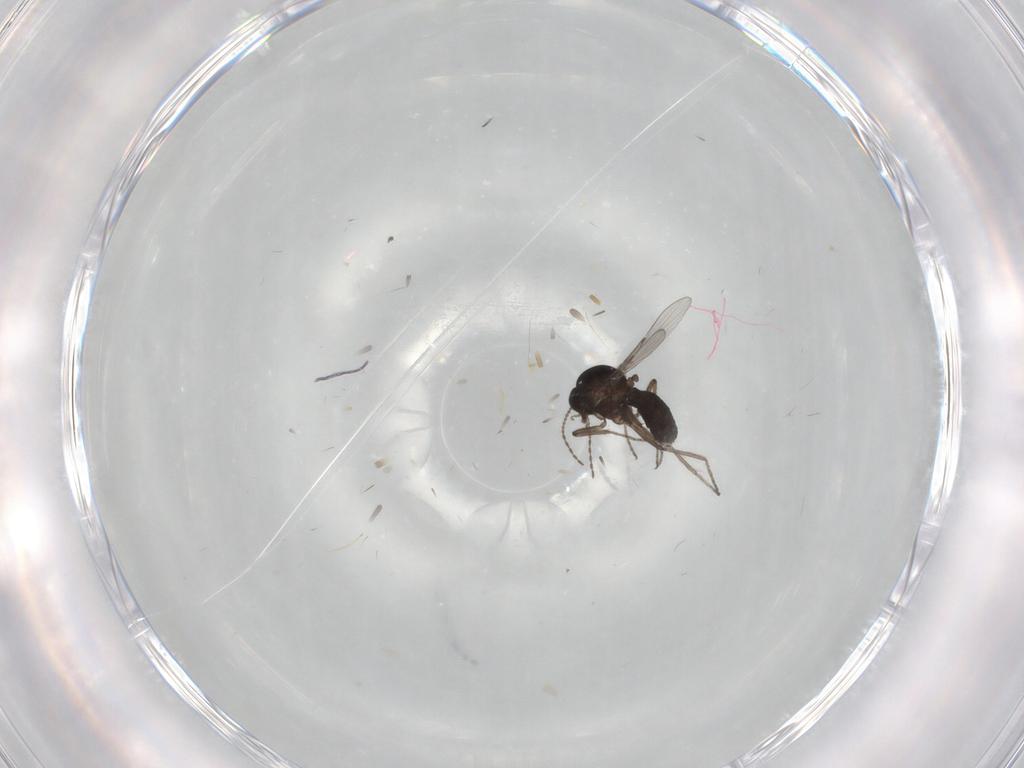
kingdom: Animalia
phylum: Arthropoda
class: Insecta
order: Diptera
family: Ceratopogonidae
